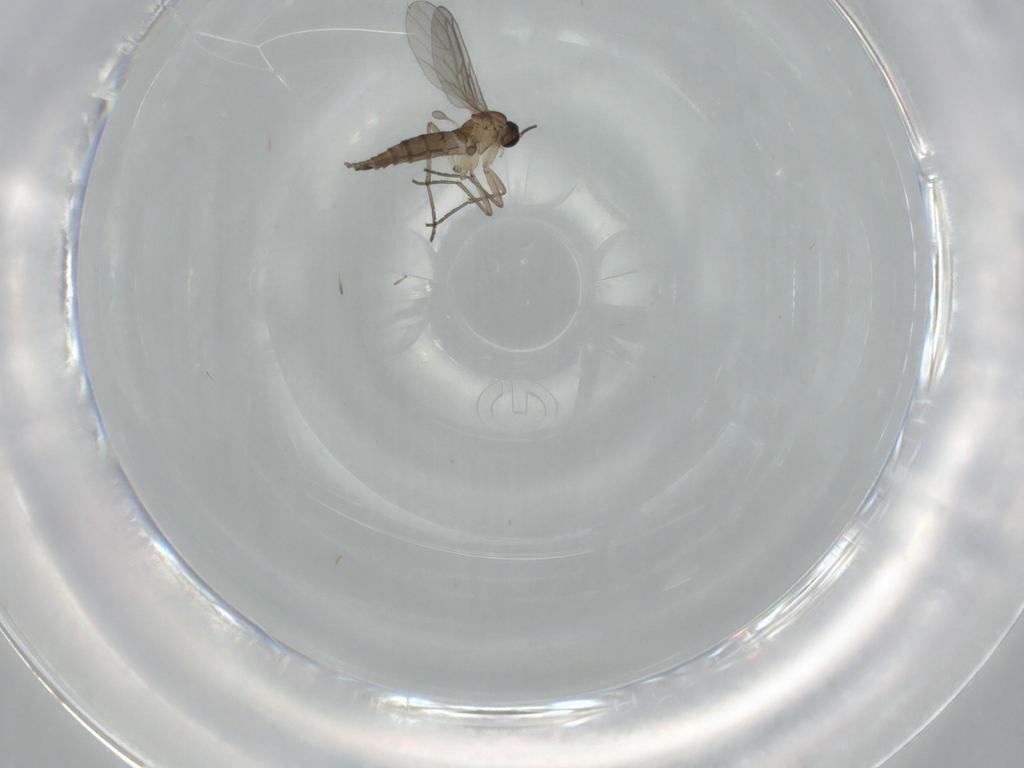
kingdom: Animalia
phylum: Arthropoda
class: Insecta
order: Diptera
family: Sciaridae
